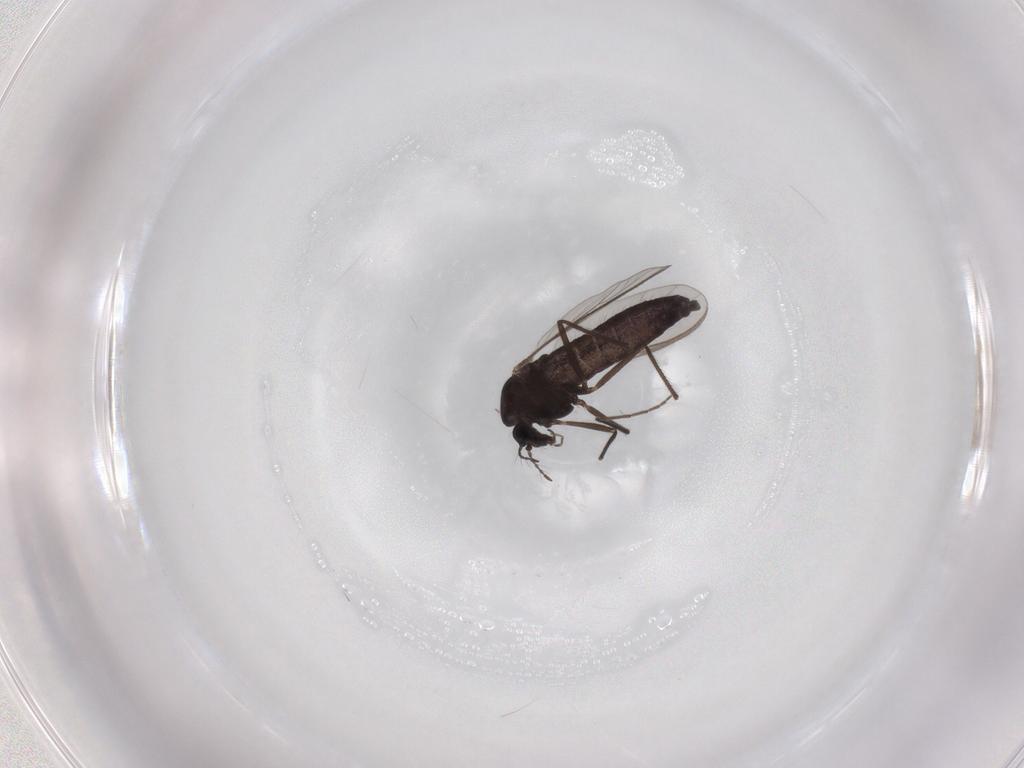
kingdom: Animalia
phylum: Arthropoda
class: Insecta
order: Diptera
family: Sphaeroceridae
